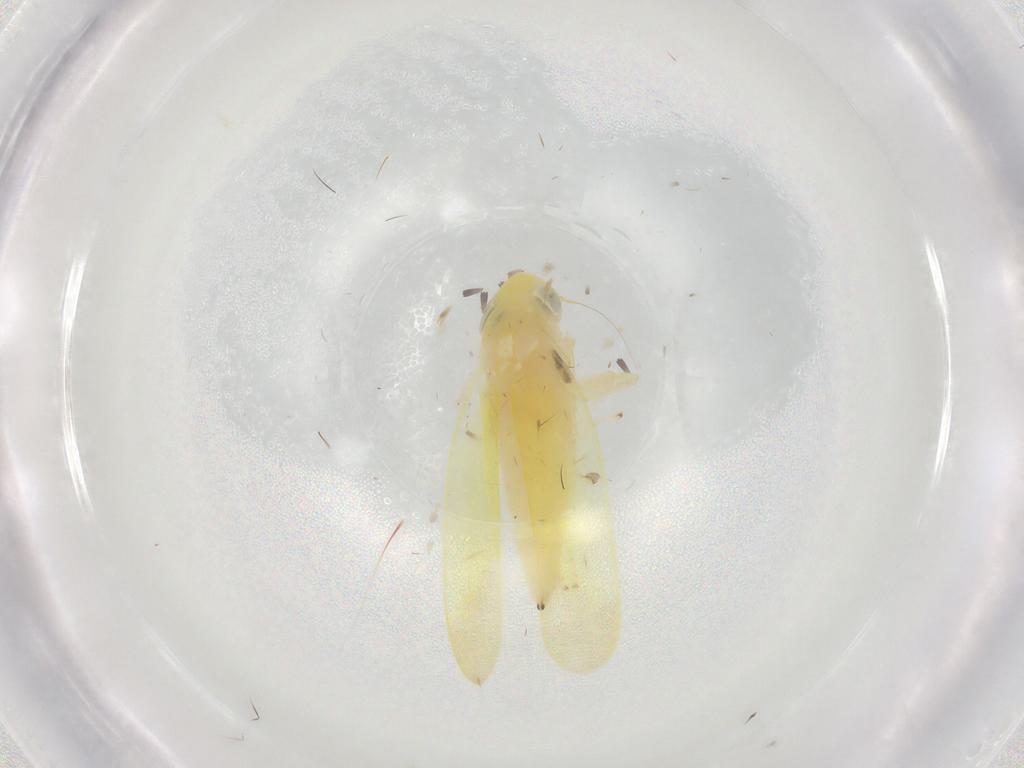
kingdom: Animalia
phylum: Arthropoda
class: Insecta
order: Hemiptera
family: Cicadellidae
